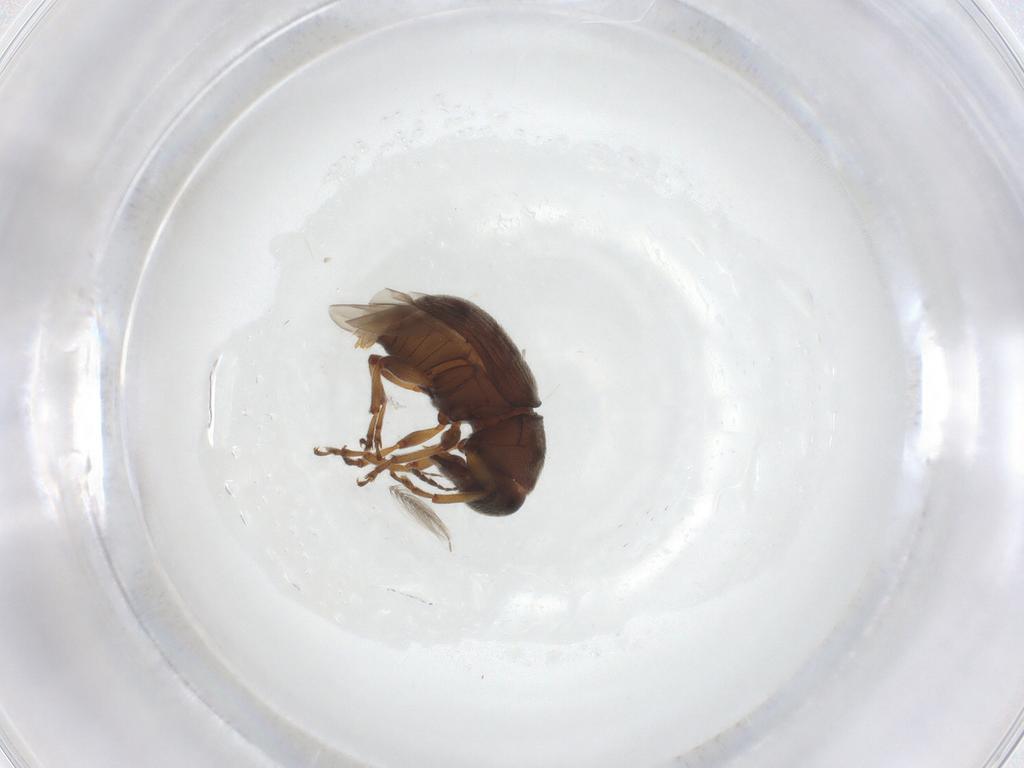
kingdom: Animalia
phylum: Arthropoda
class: Insecta
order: Coleoptera
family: Anthribidae
